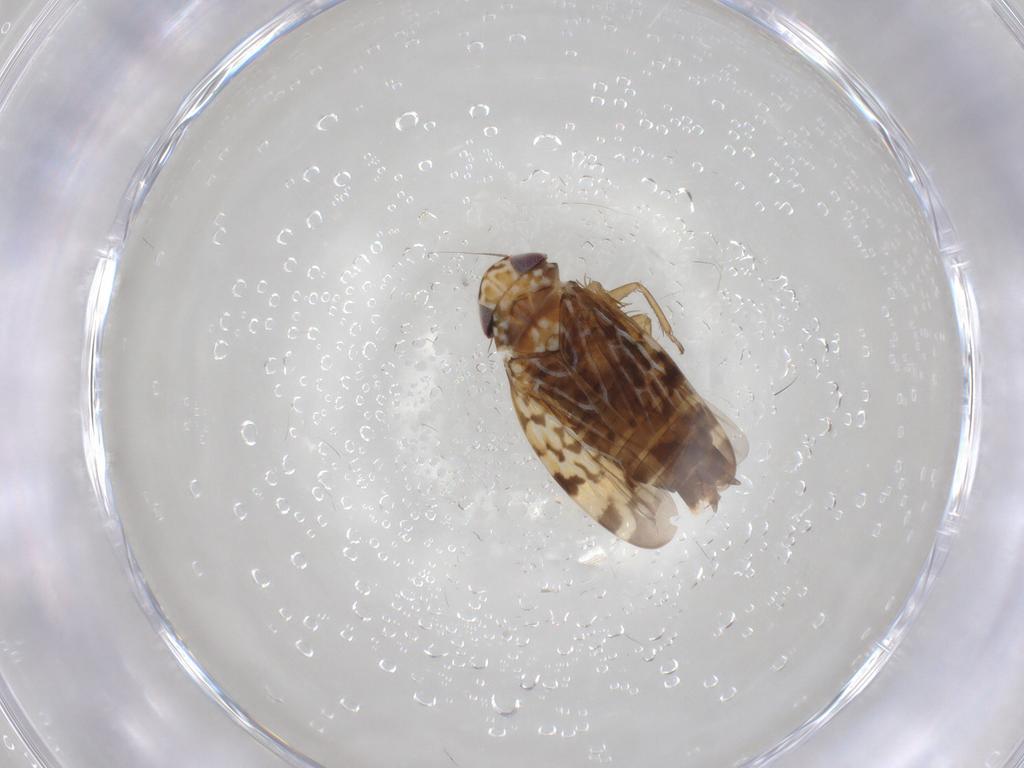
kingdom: Animalia
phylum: Arthropoda
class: Insecta
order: Hemiptera
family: Cicadellidae
